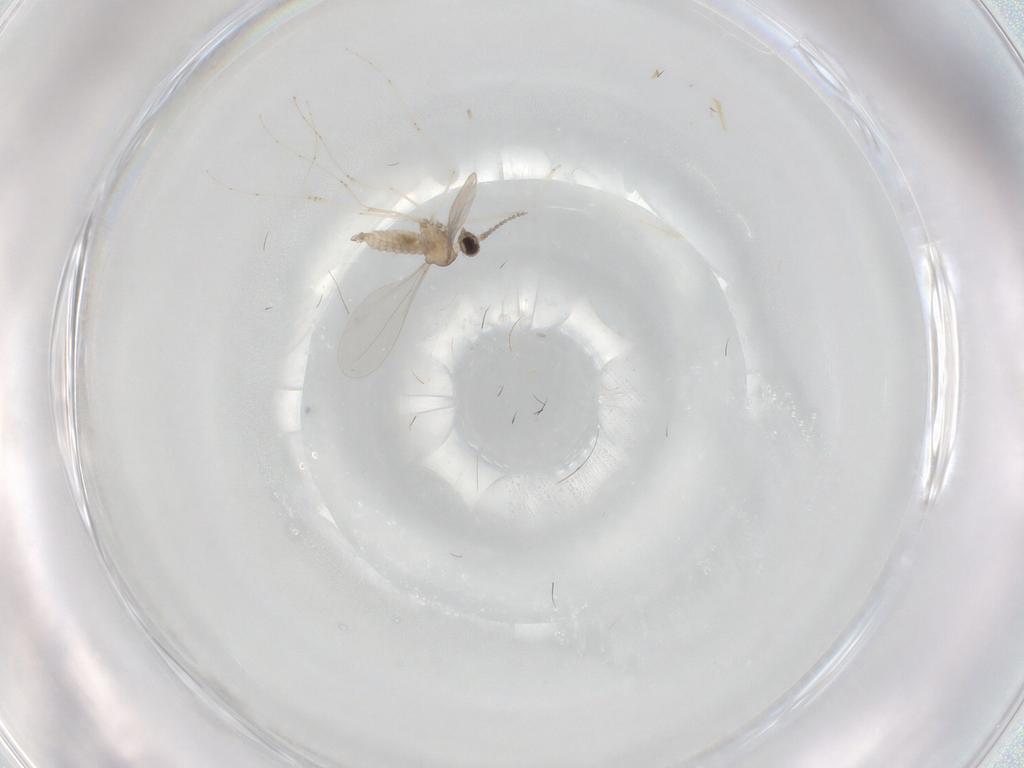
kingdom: Animalia
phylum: Arthropoda
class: Insecta
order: Diptera
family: Cecidomyiidae
